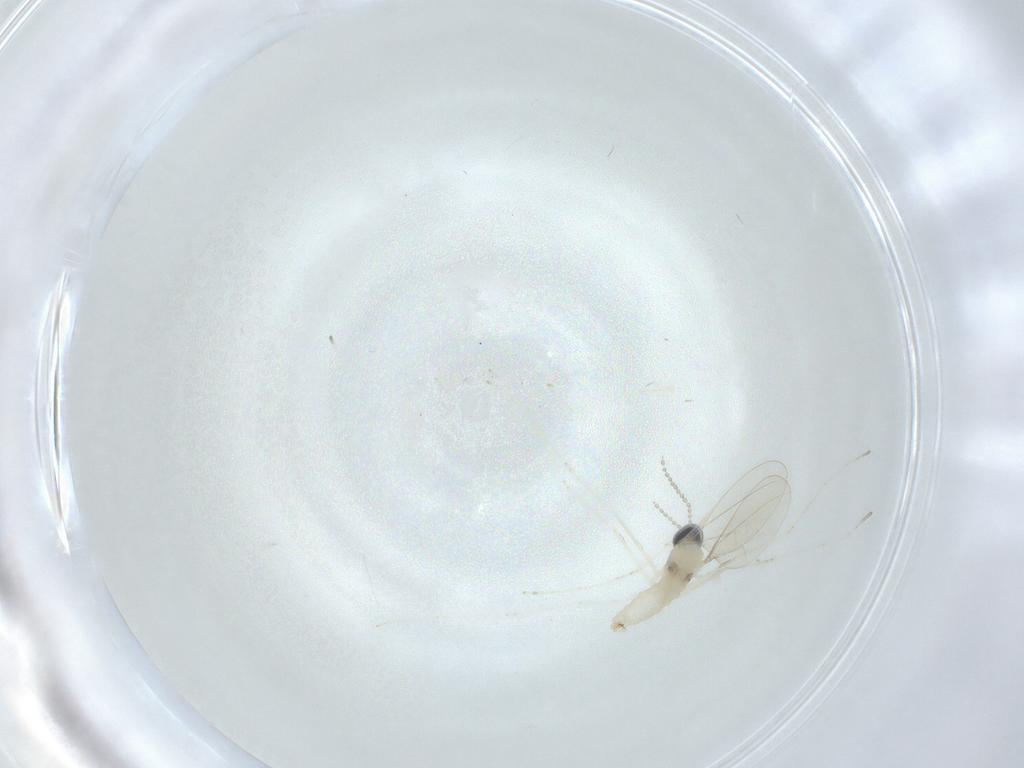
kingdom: Animalia
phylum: Arthropoda
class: Insecta
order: Diptera
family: Cecidomyiidae
